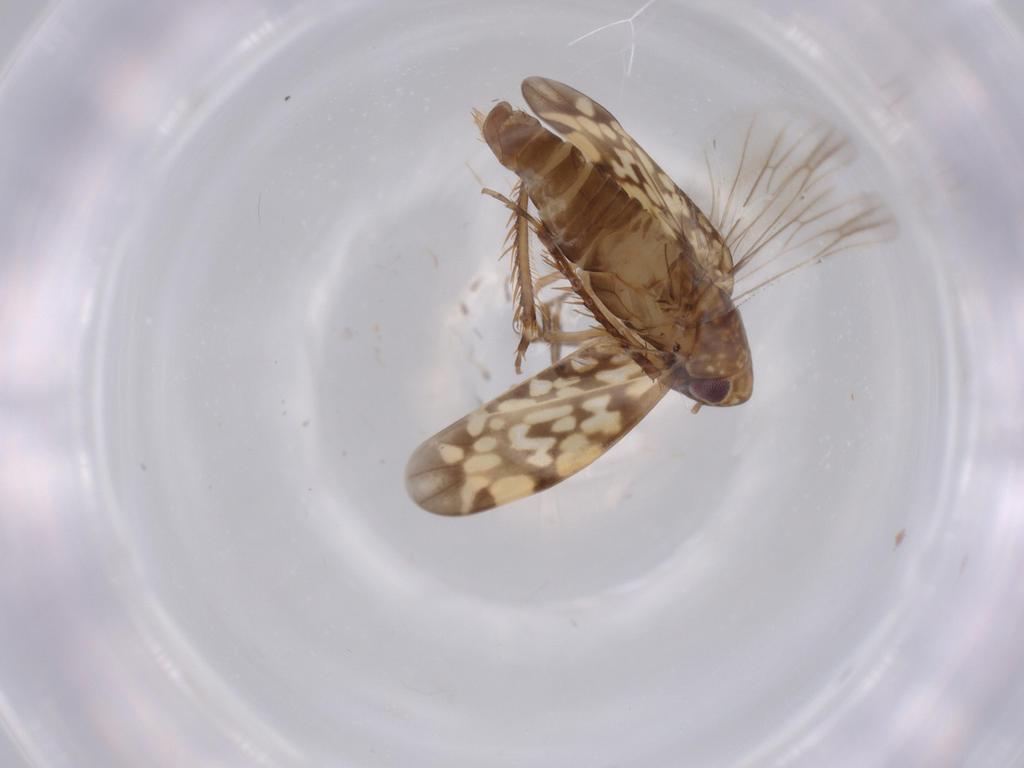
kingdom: Animalia
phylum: Arthropoda
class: Insecta
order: Hemiptera
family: Cicadellidae
